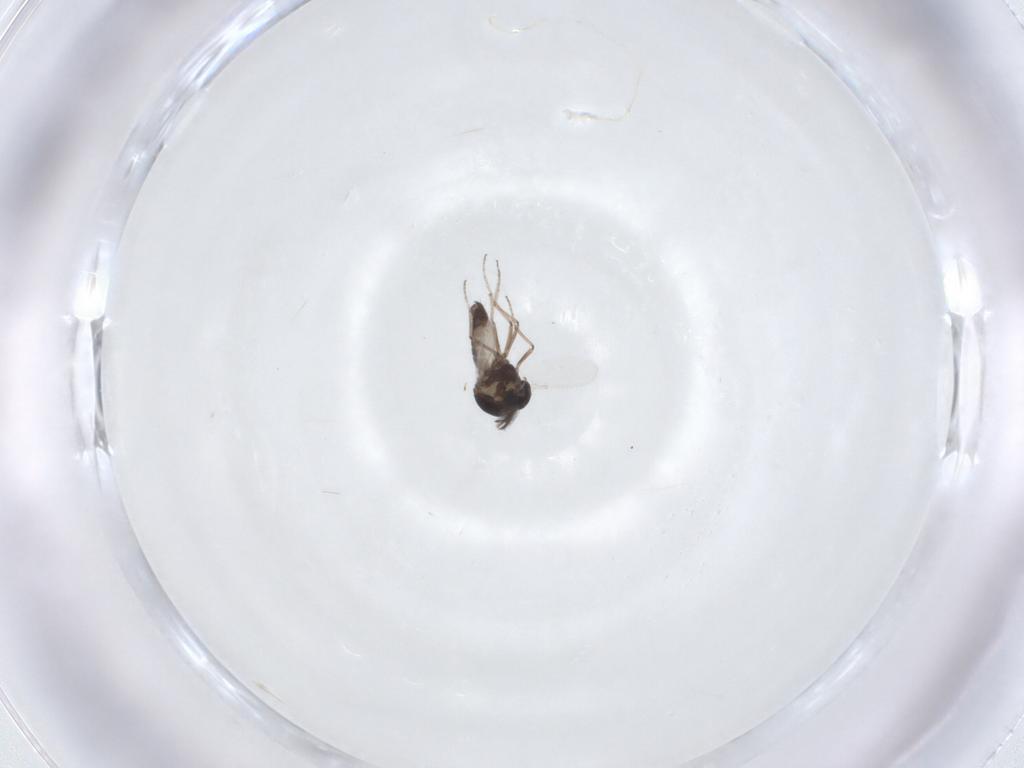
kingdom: Animalia
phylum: Arthropoda
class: Insecta
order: Diptera
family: Ceratopogonidae
